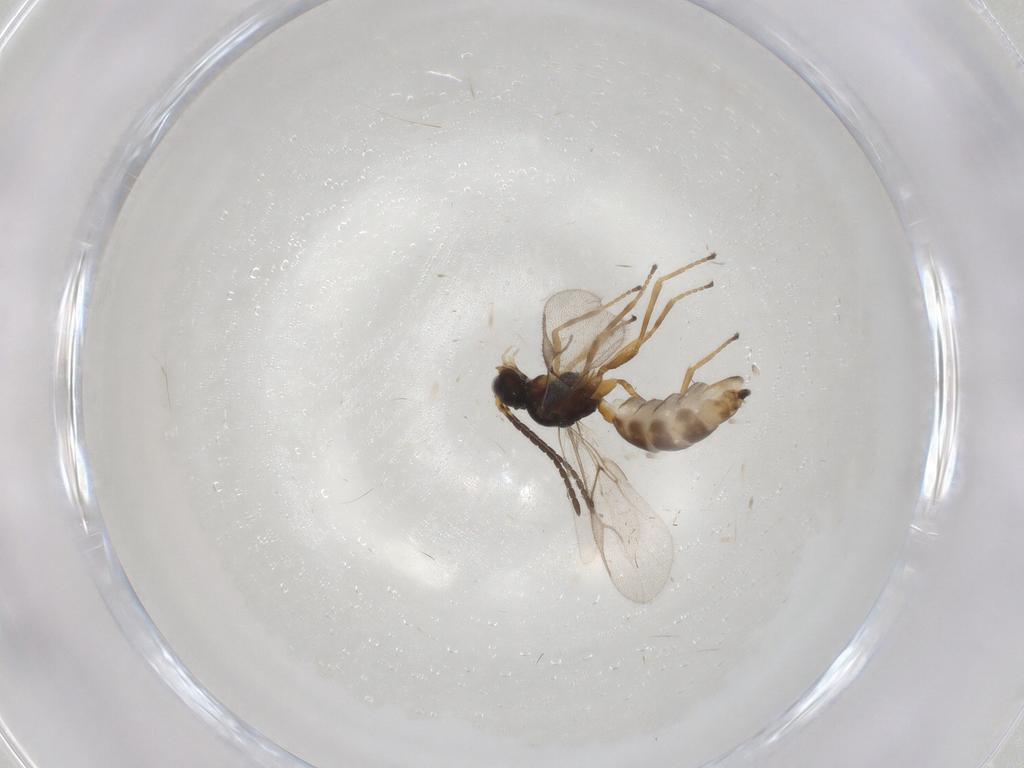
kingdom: Animalia
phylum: Arthropoda
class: Insecta
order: Hymenoptera
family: Braconidae
